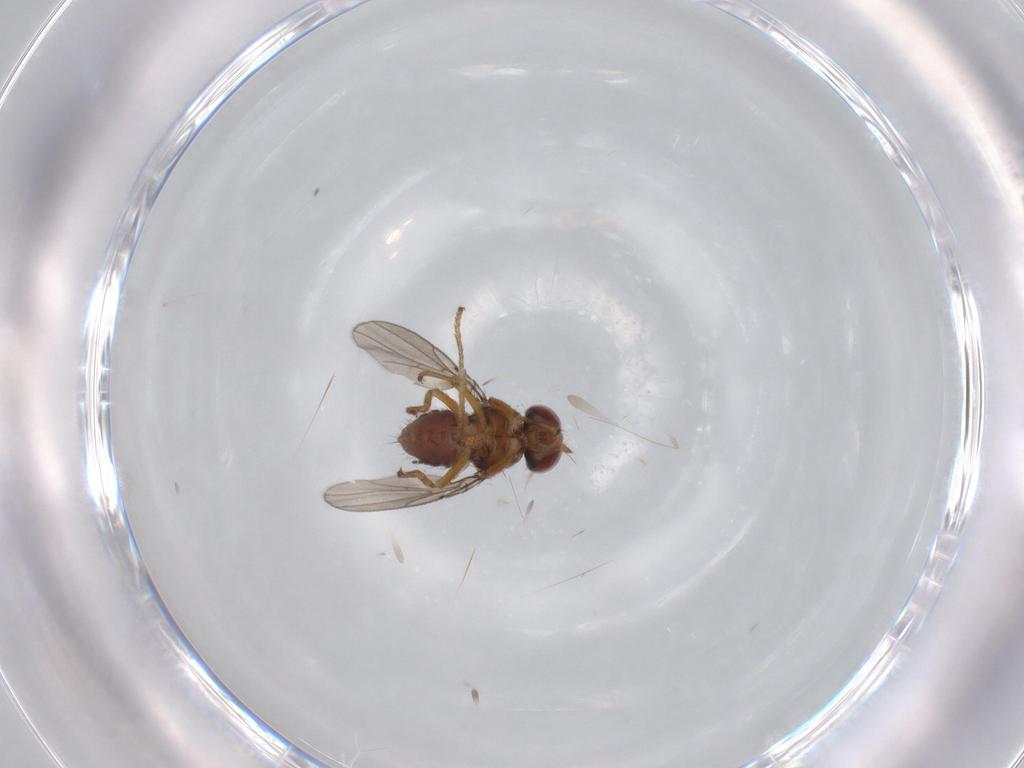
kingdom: Animalia
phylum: Arthropoda
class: Insecta
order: Diptera
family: Ephydridae
